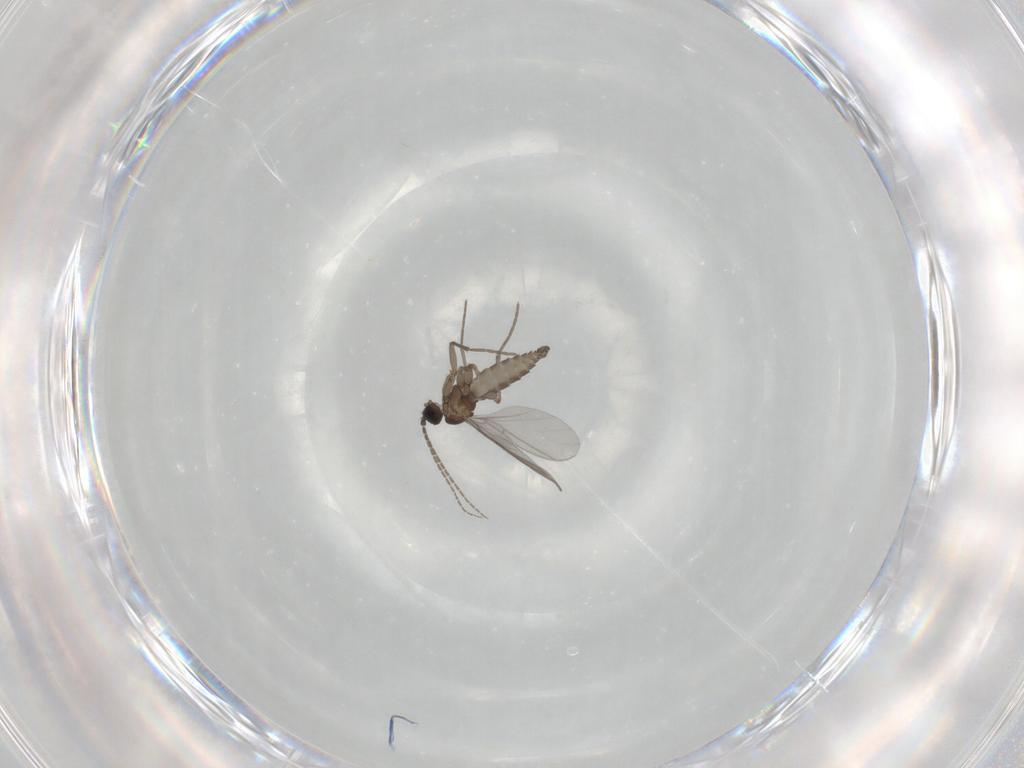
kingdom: Animalia
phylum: Arthropoda
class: Insecta
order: Diptera
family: Sciaridae
